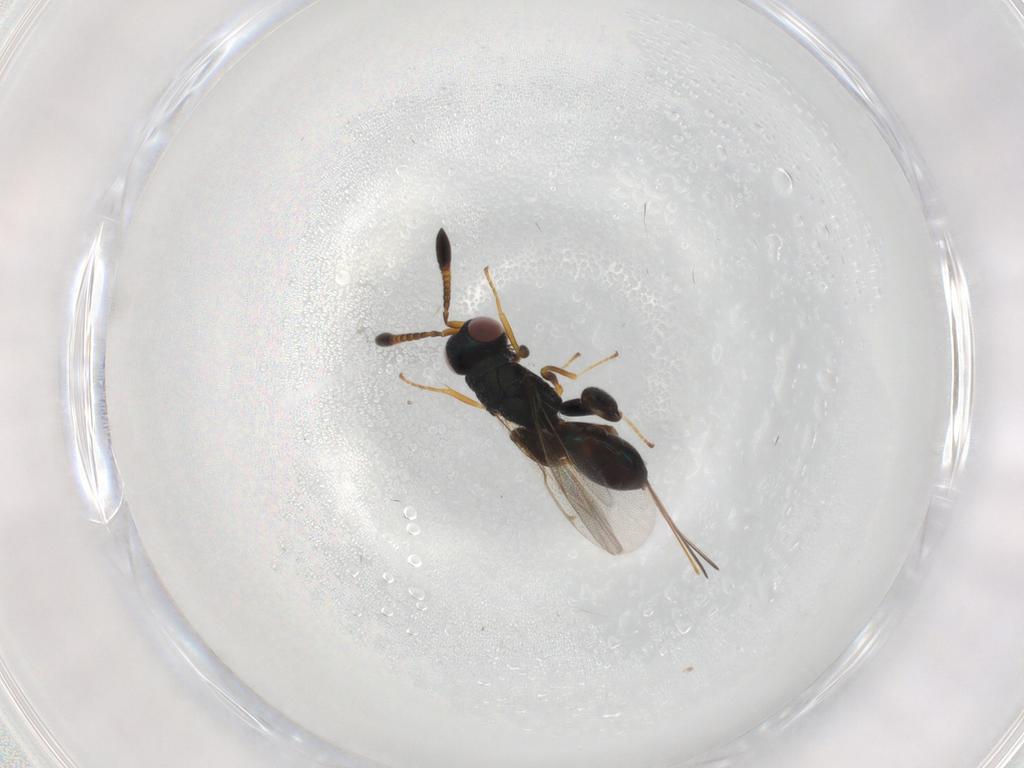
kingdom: Animalia
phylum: Arthropoda
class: Insecta
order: Hymenoptera
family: Torymidae
